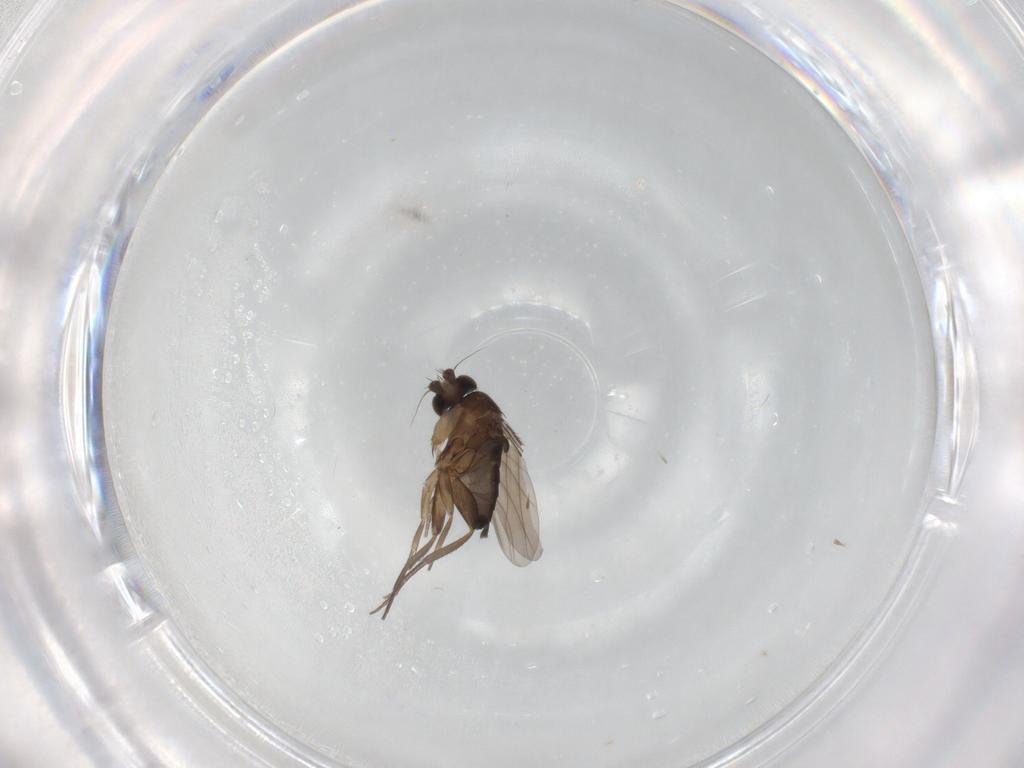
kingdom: Animalia
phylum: Arthropoda
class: Insecta
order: Diptera
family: Phoridae
